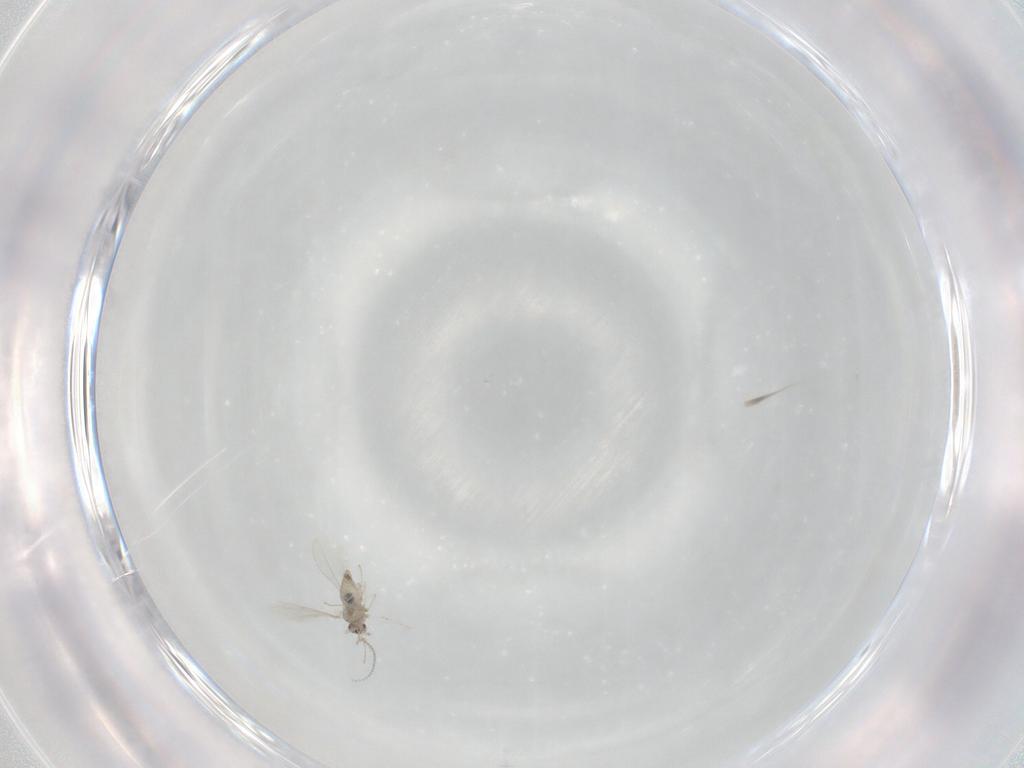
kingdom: Animalia
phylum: Arthropoda
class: Insecta
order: Diptera
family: Cecidomyiidae
